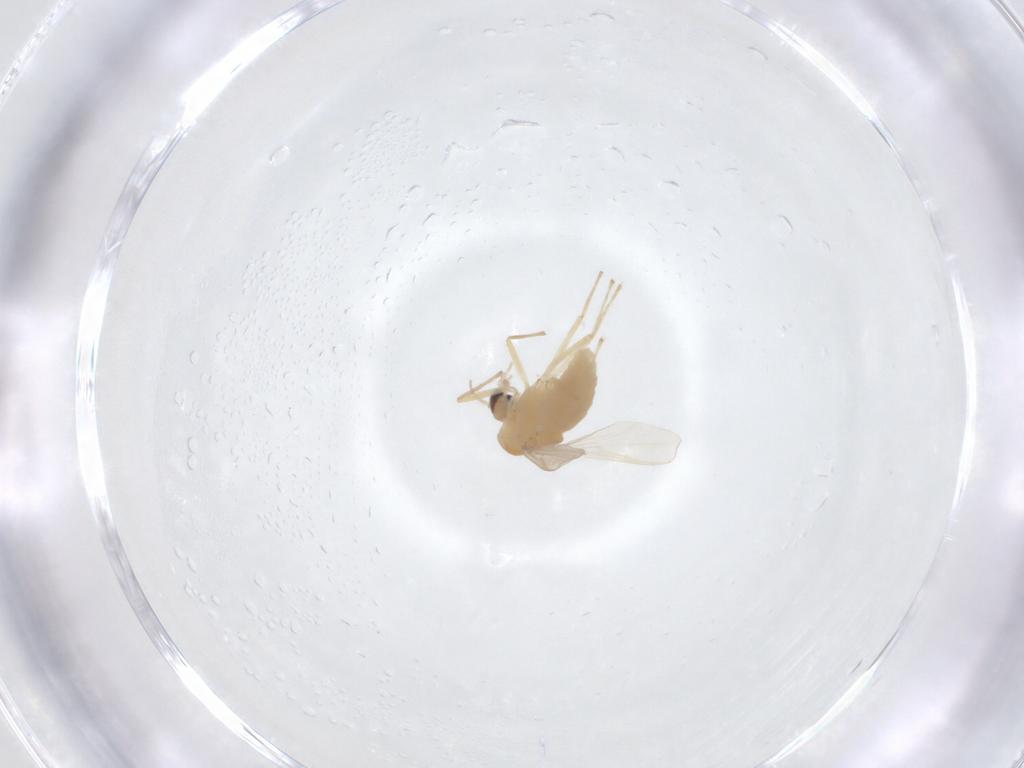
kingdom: Animalia
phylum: Arthropoda
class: Insecta
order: Diptera
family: Chironomidae
